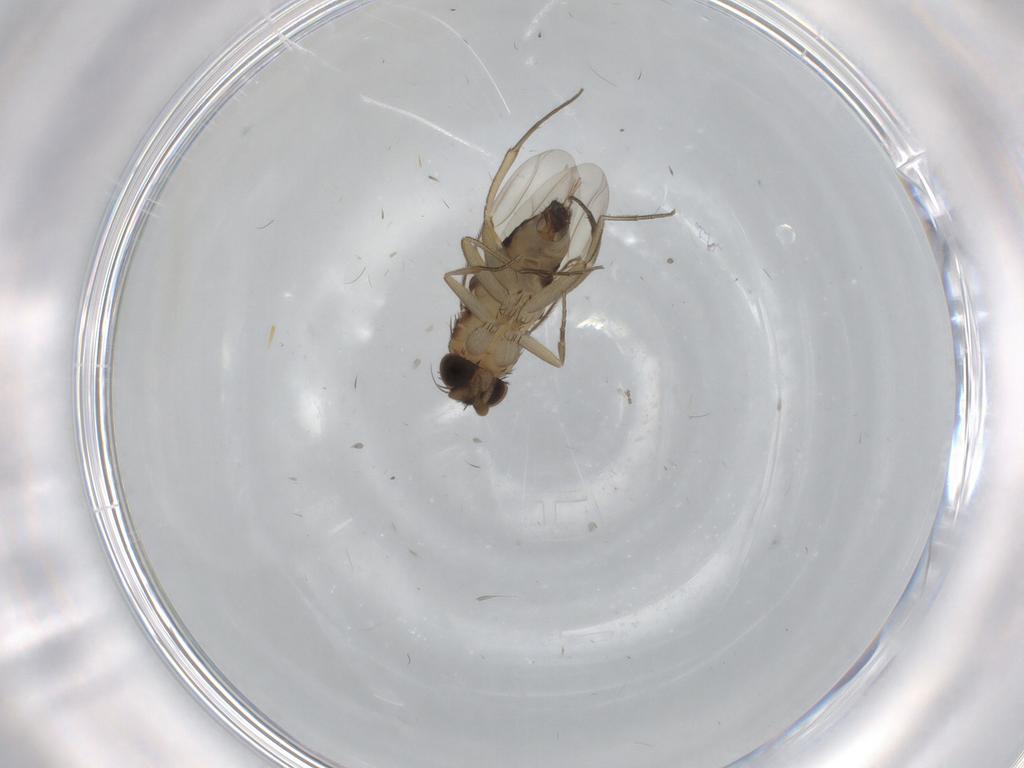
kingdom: Animalia
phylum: Arthropoda
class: Insecta
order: Diptera
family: Phoridae
